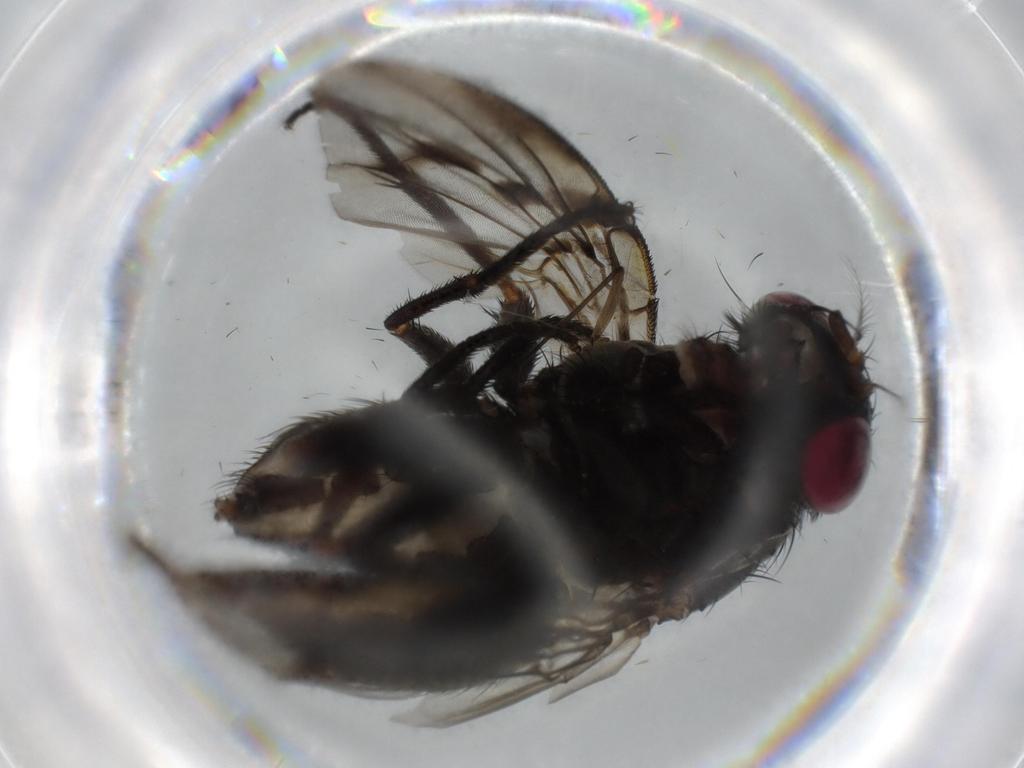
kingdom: Animalia
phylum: Arthropoda
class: Insecta
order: Diptera
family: Muscidae
